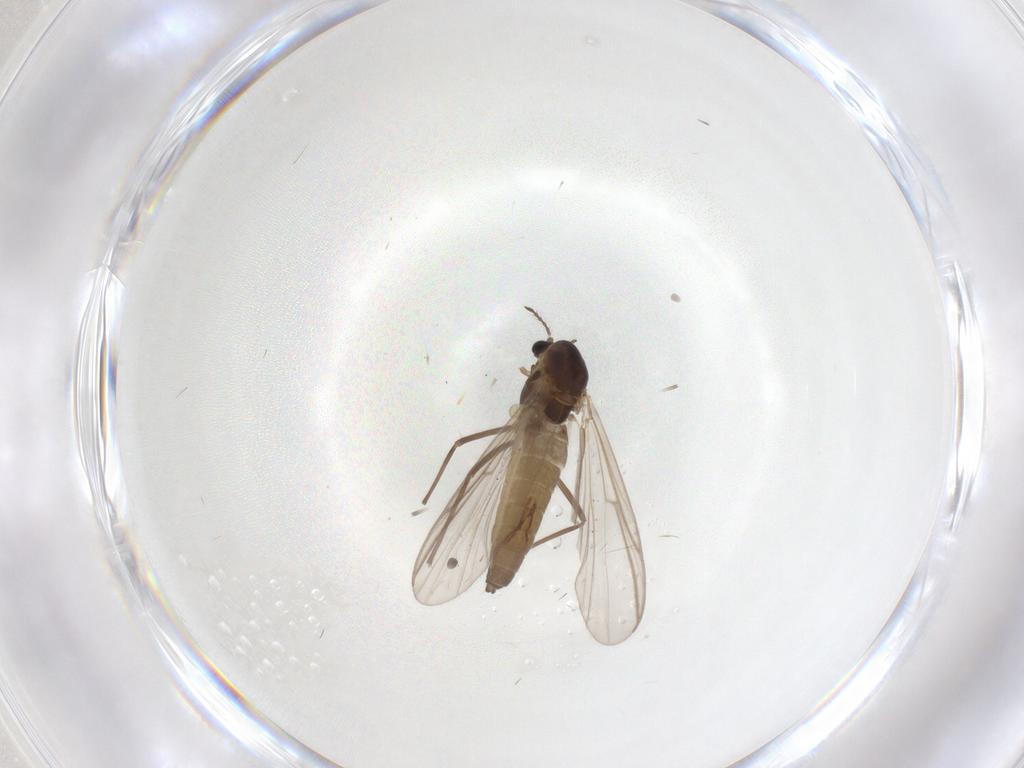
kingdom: Animalia
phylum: Arthropoda
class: Insecta
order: Diptera
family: Chironomidae
